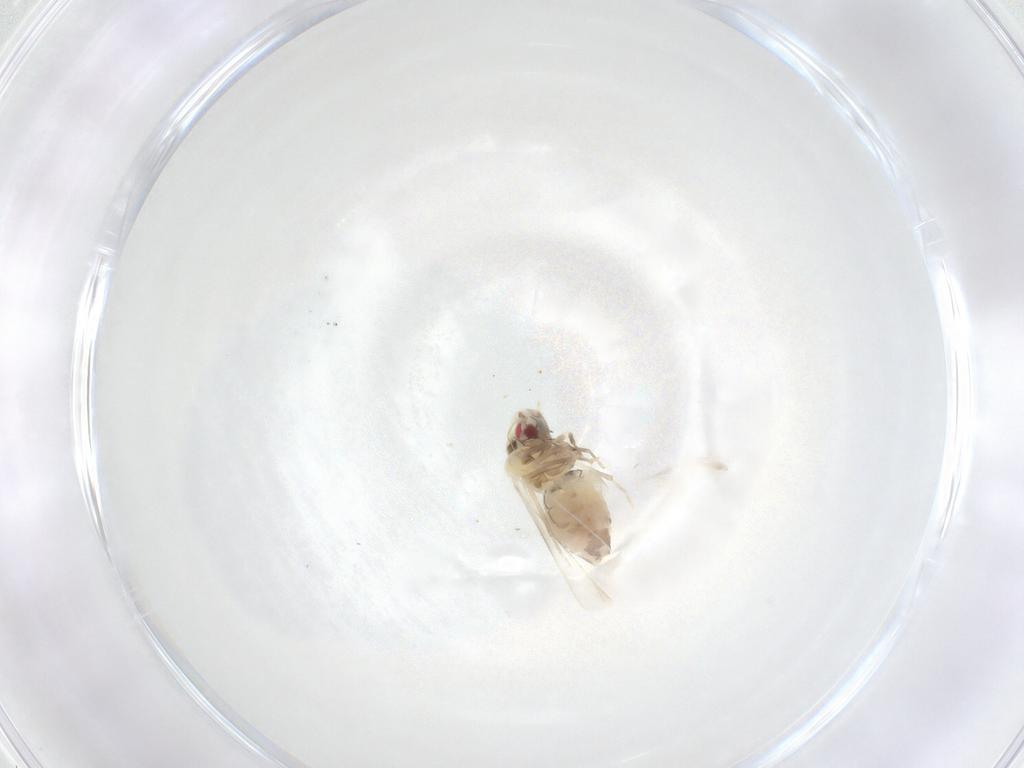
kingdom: Animalia
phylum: Arthropoda
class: Insecta
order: Hemiptera
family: Aleyrodidae
